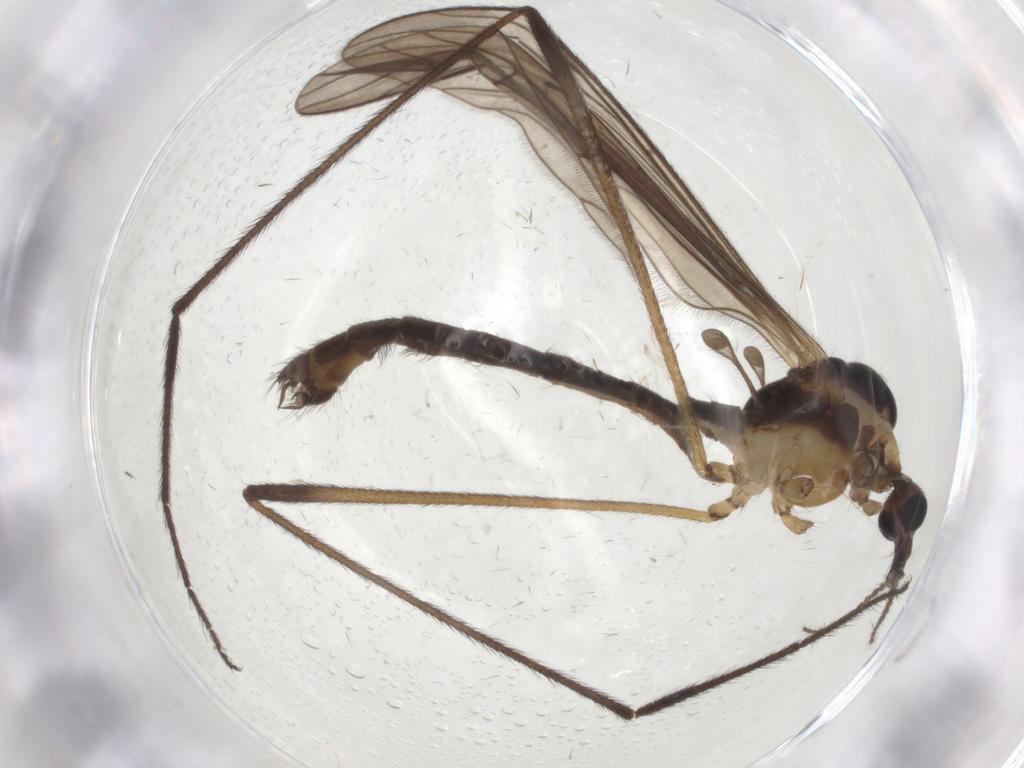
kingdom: Animalia
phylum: Arthropoda
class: Insecta
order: Diptera
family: Limoniidae
